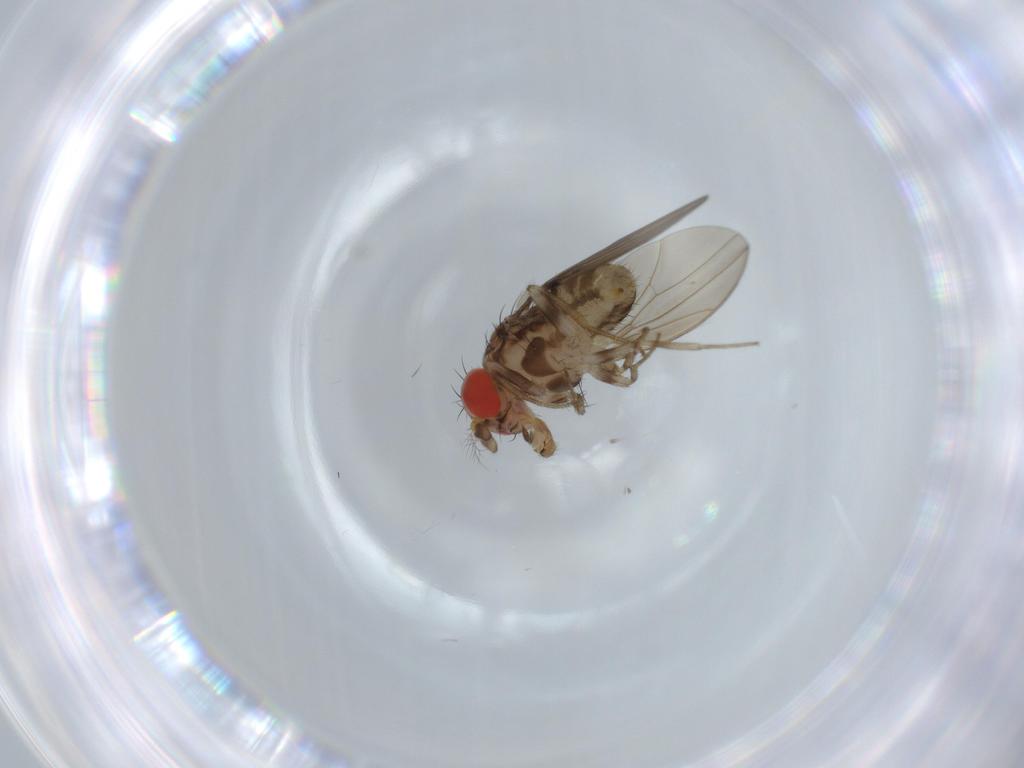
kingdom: Animalia
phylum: Arthropoda
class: Insecta
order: Diptera
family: Drosophilidae
